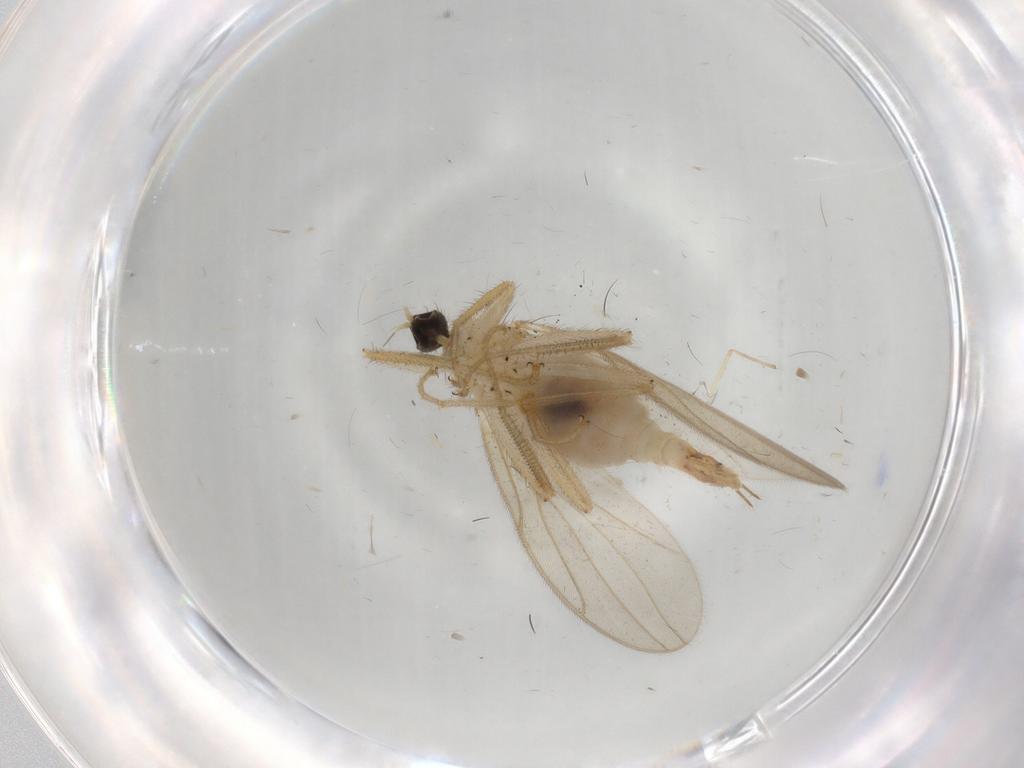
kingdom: Animalia
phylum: Arthropoda
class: Insecta
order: Diptera
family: Hybotidae
